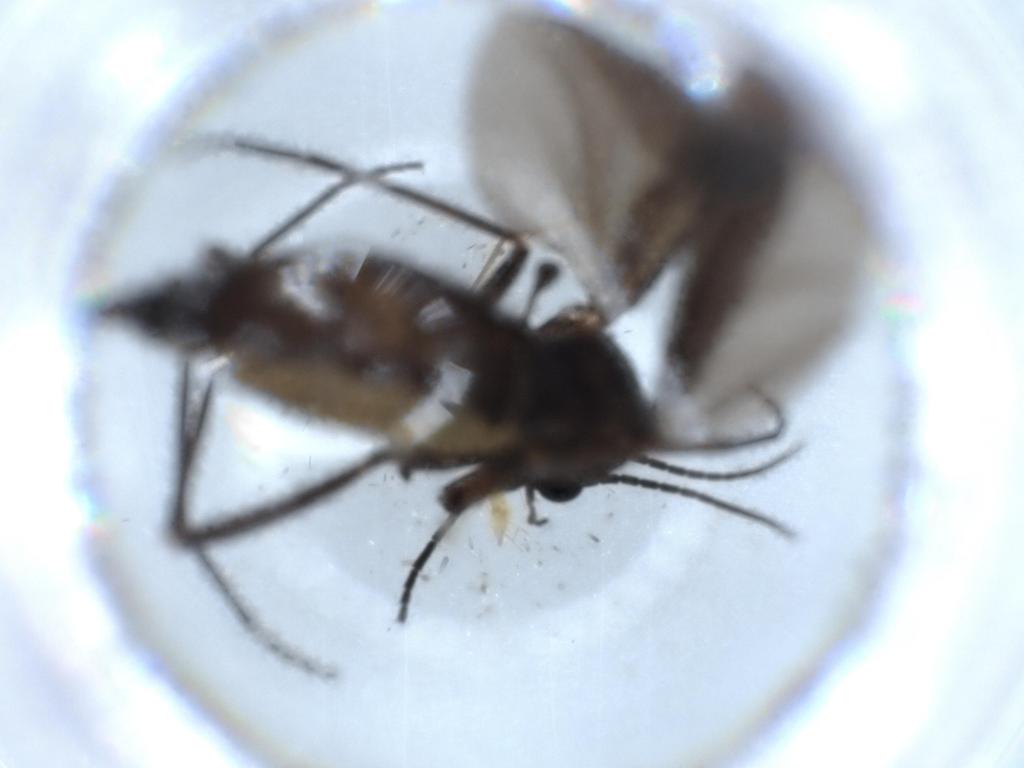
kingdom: Animalia
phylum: Arthropoda
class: Insecta
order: Diptera
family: Sciaridae
